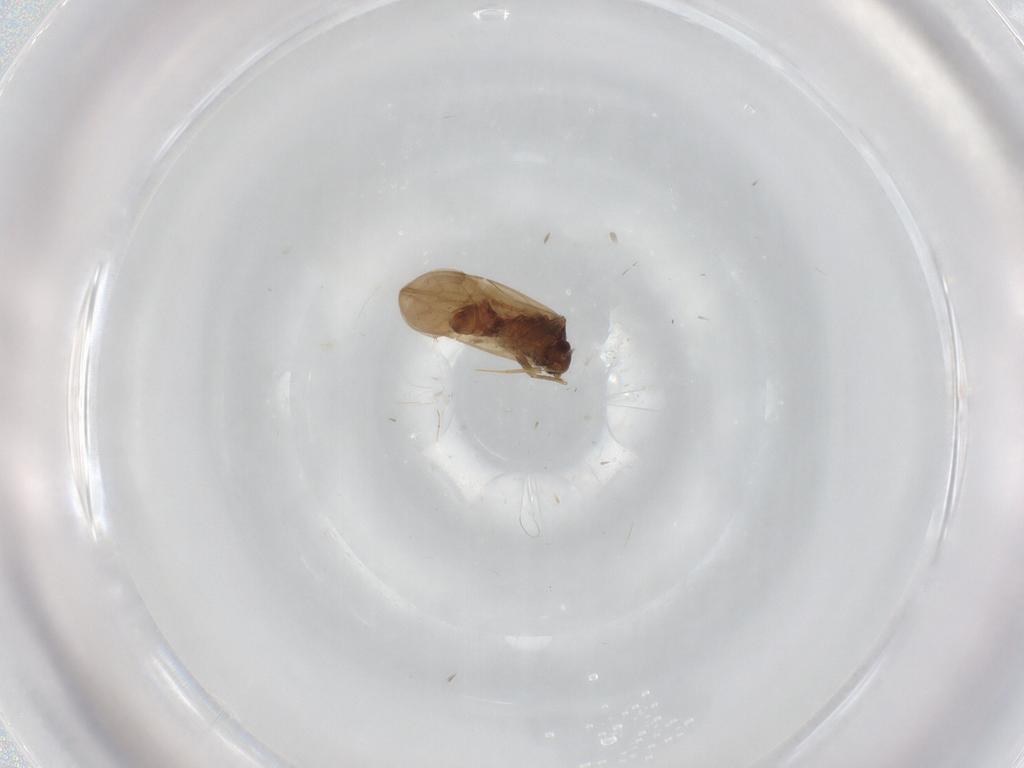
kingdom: Animalia
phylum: Arthropoda
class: Insecta
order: Hemiptera
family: Ceratocombidae
